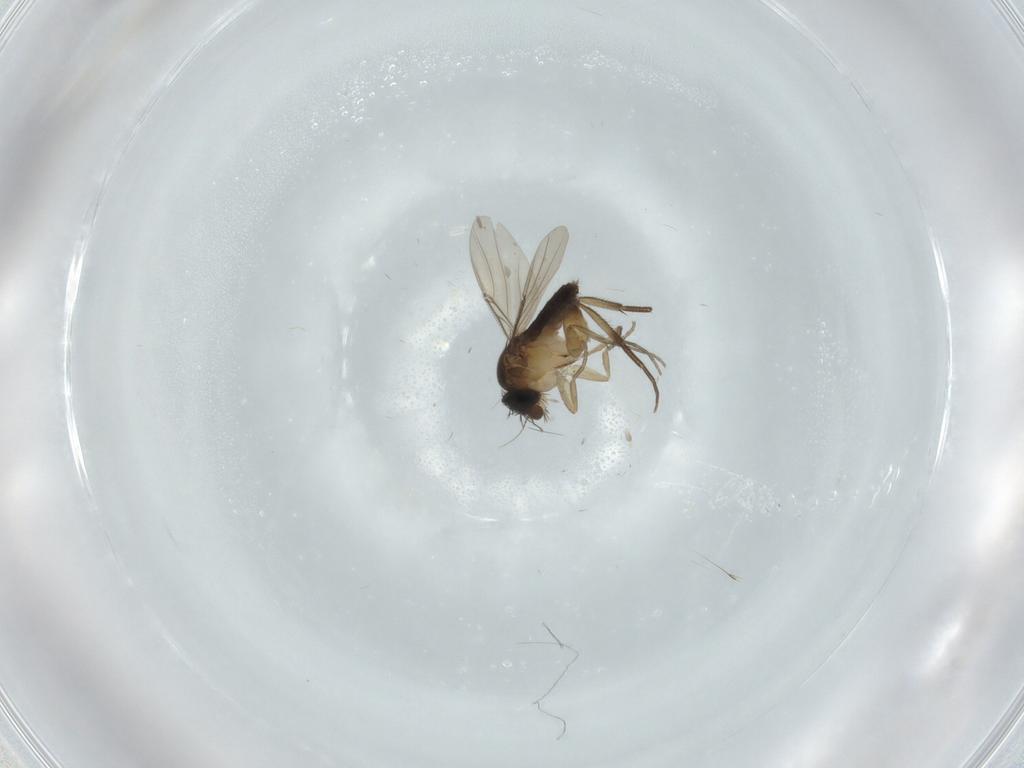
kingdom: Animalia
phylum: Arthropoda
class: Insecta
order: Diptera
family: Phoridae
